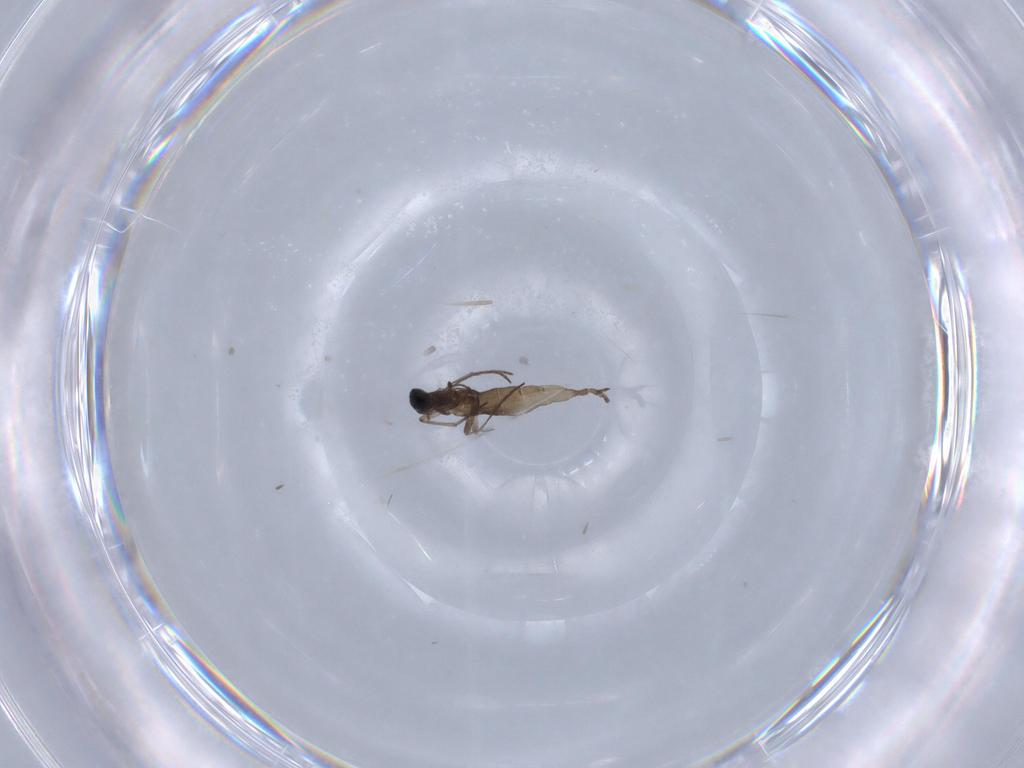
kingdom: Animalia
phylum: Arthropoda
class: Insecta
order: Diptera
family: Sciaridae
